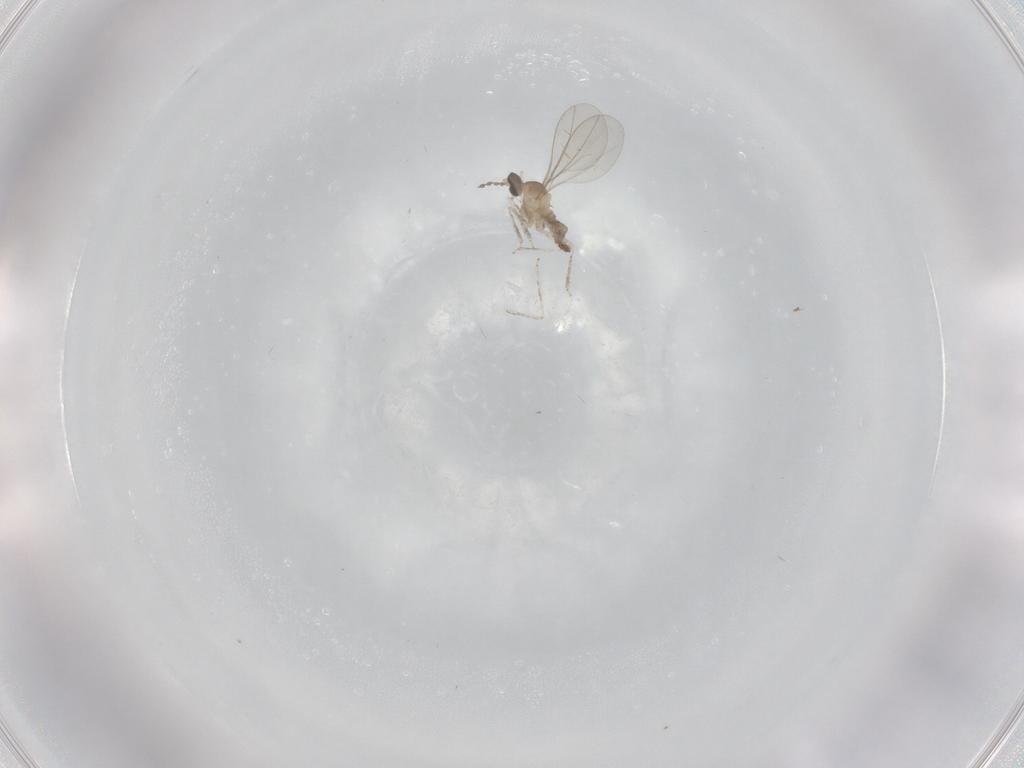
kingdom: Animalia
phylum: Arthropoda
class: Insecta
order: Diptera
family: Cecidomyiidae
